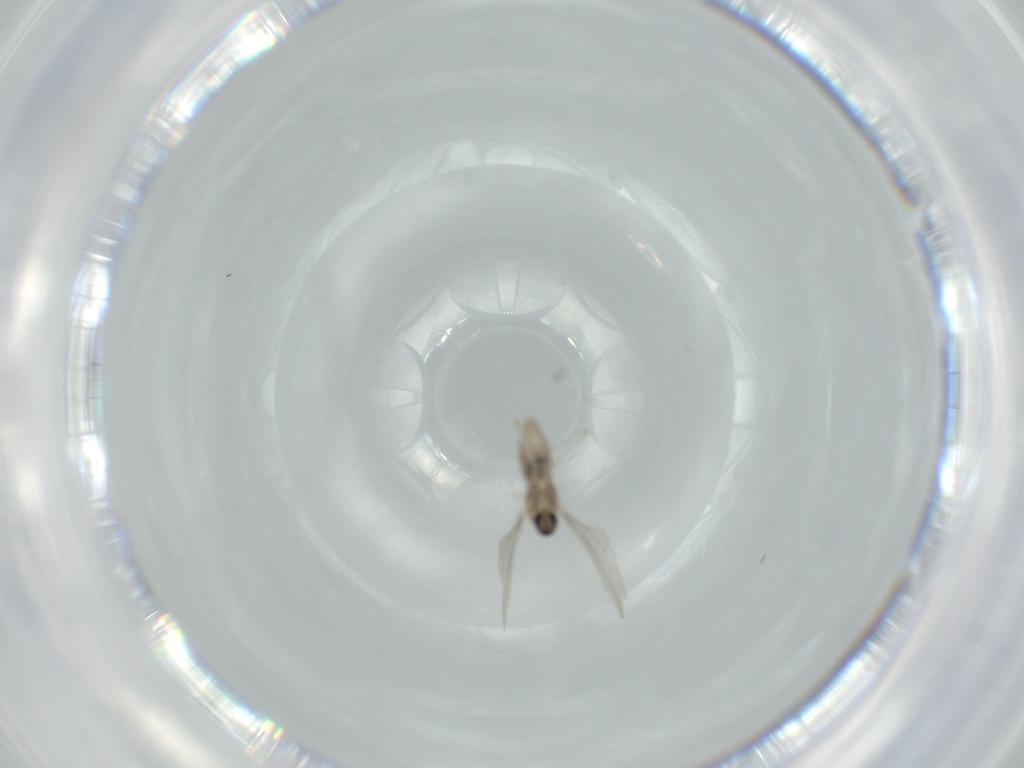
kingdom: Animalia
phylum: Arthropoda
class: Insecta
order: Diptera
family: Cecidomyiidae
